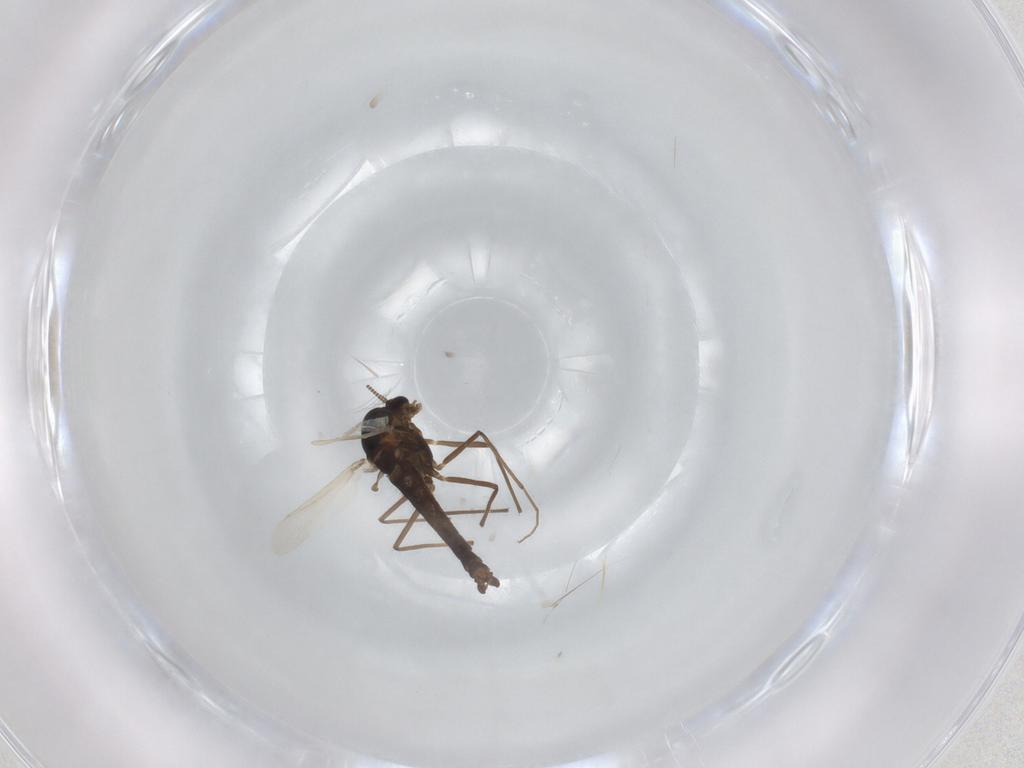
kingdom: Animalia
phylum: Arthropoda
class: Insecta
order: Diptera
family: Chironomidae
